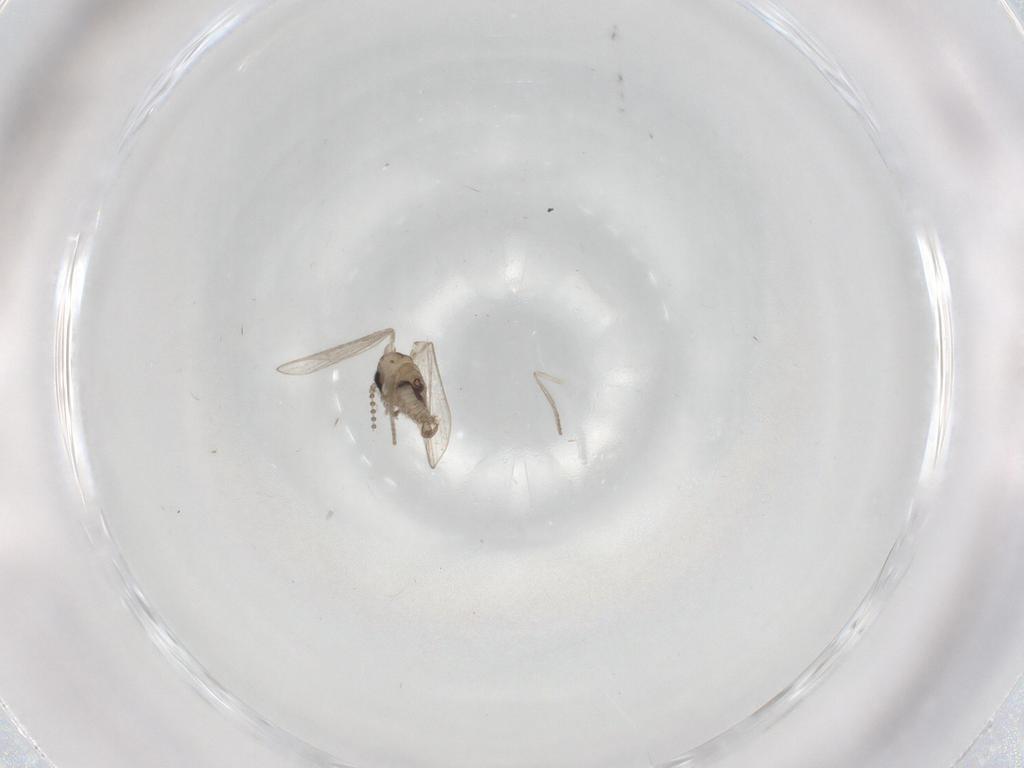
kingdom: Animalia
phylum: Arthropoda
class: Insecta
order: Diptera
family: Psychodidae
